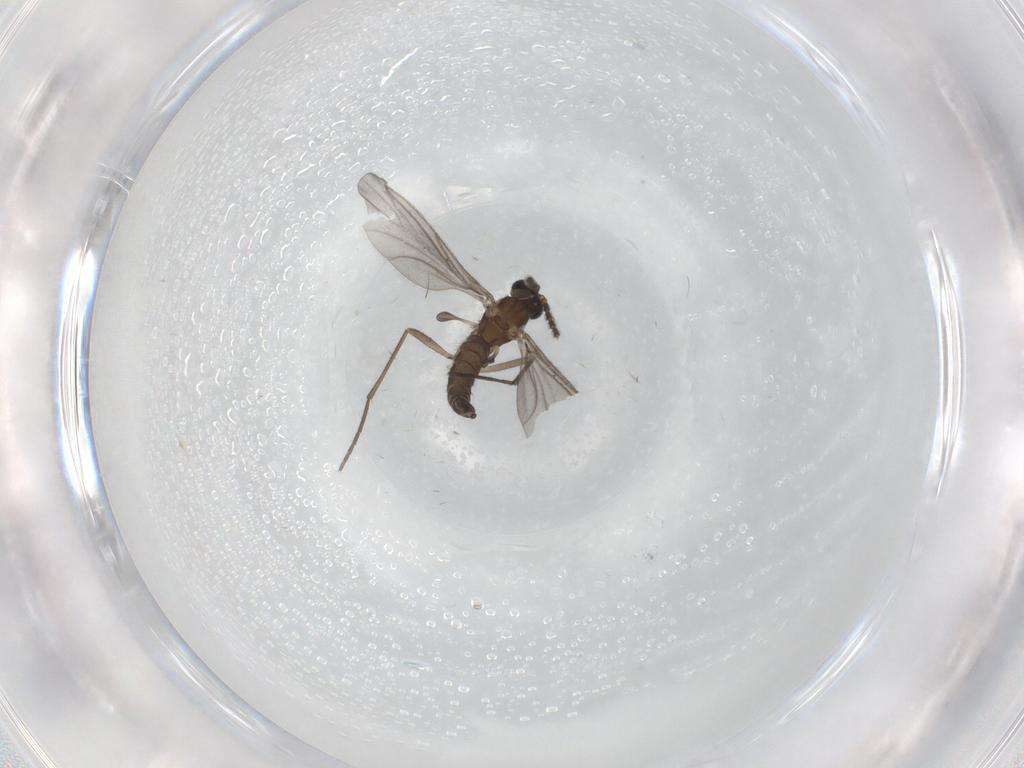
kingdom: Animalia
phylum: Arthropoda
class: Insecta
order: Diptera
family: Sciaridae
